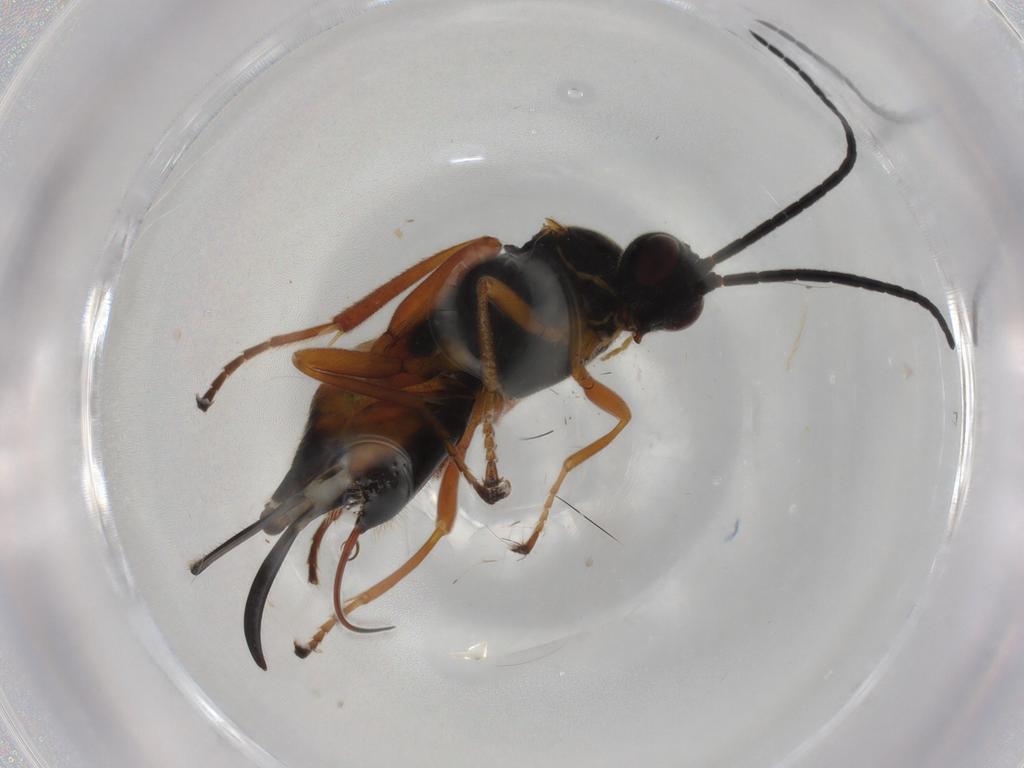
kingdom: Animalia
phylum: Arthropoda
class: Insecta
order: Lepidoptera
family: Tortricidae
